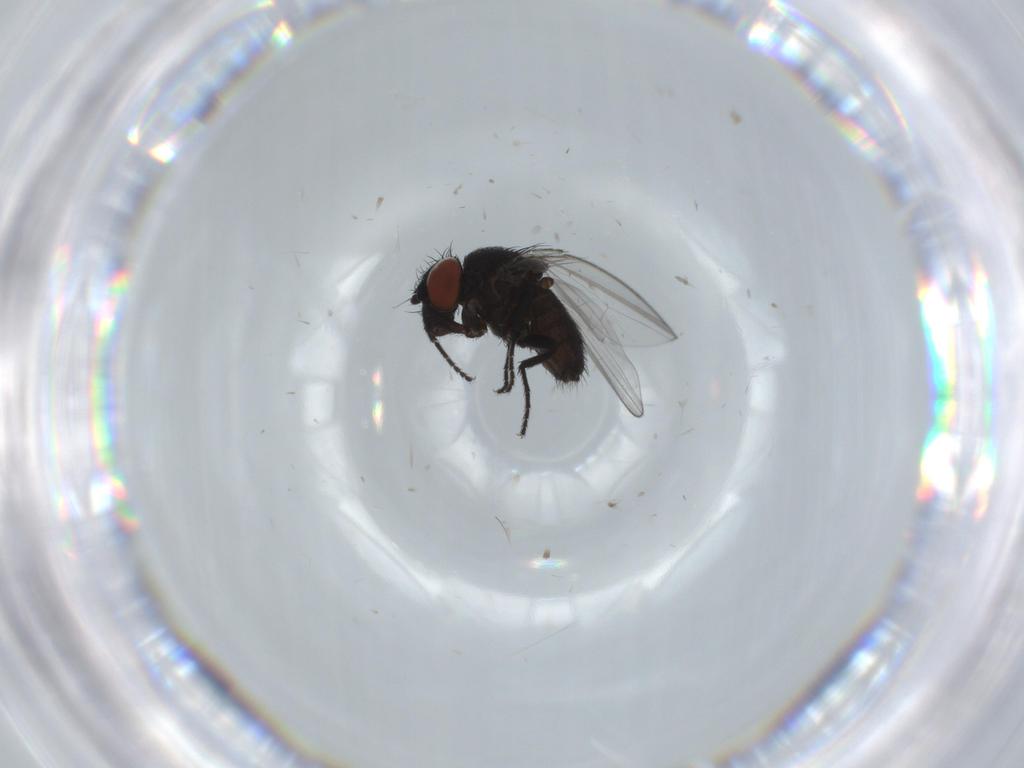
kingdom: Animalia
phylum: Arthropoda
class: Insecta
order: Diptera
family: Milichiidae
